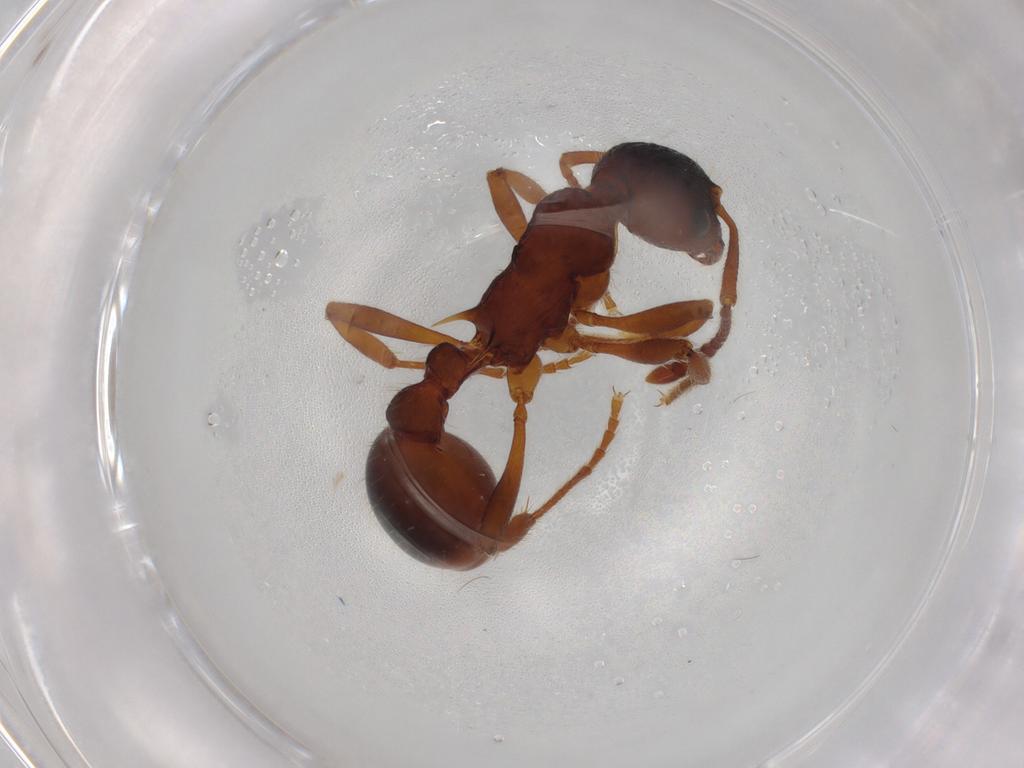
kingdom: Animalia
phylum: Arthropoda
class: Insecta
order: Hymenoptera
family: Formicidae
